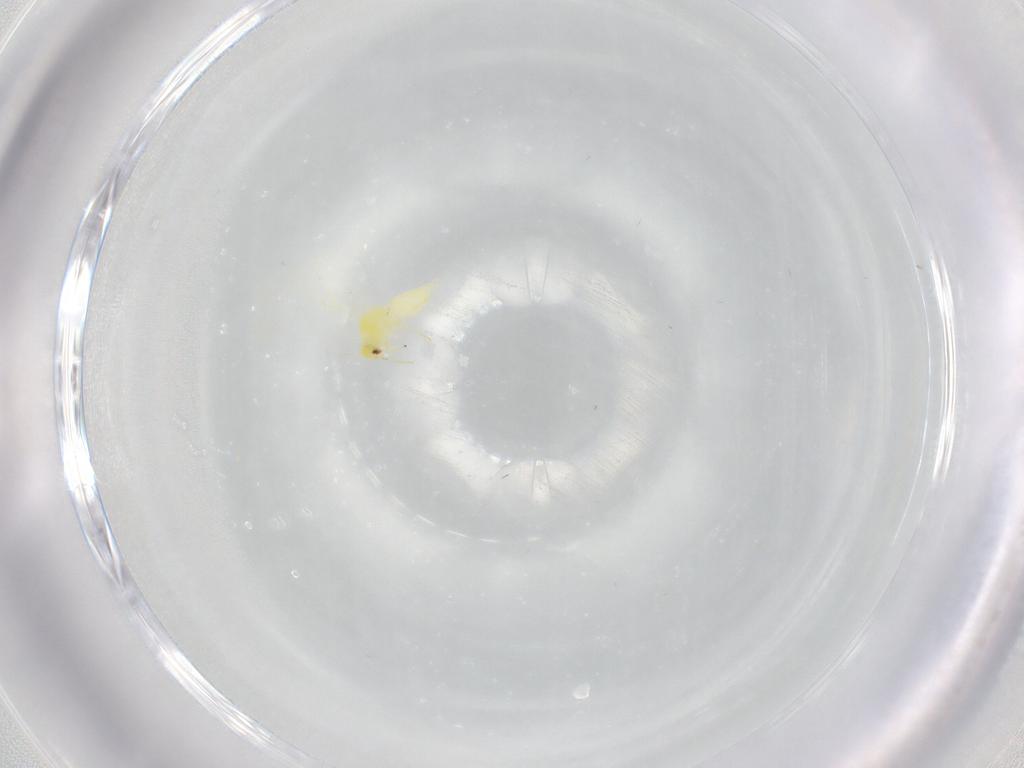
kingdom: Animalia
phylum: Arthropoda
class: Insecta
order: Hemiptera
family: Aleyrodidae
